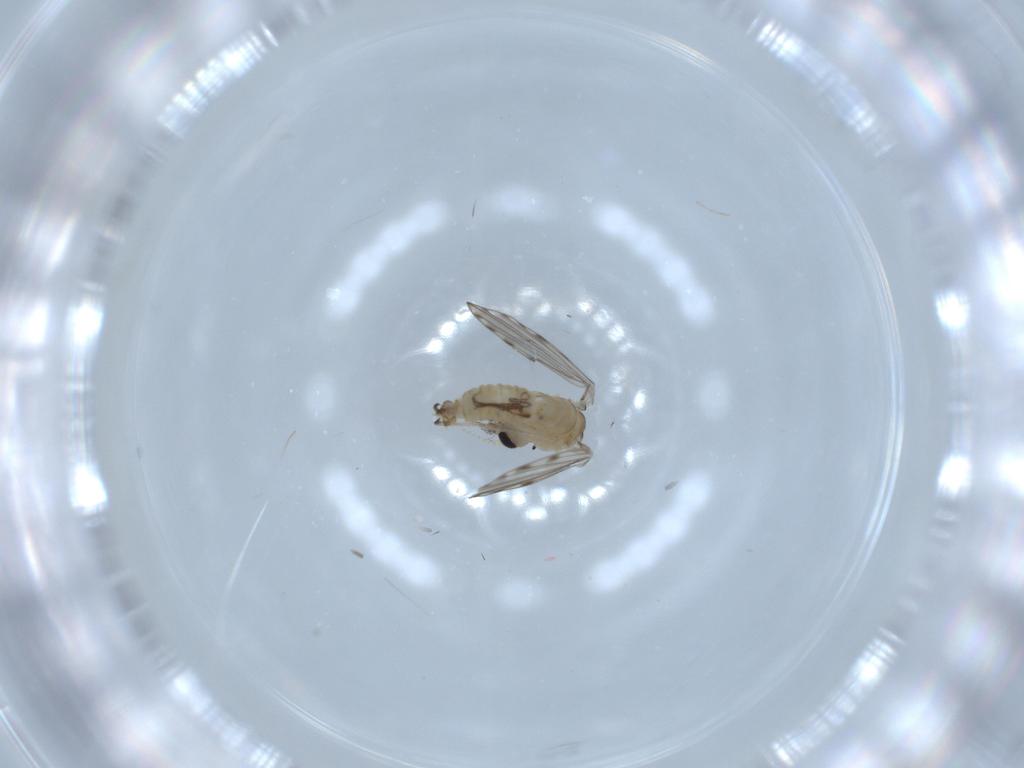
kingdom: Animalia
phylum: Arthropoda
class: Insecta
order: Diptera
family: Psychodidae
